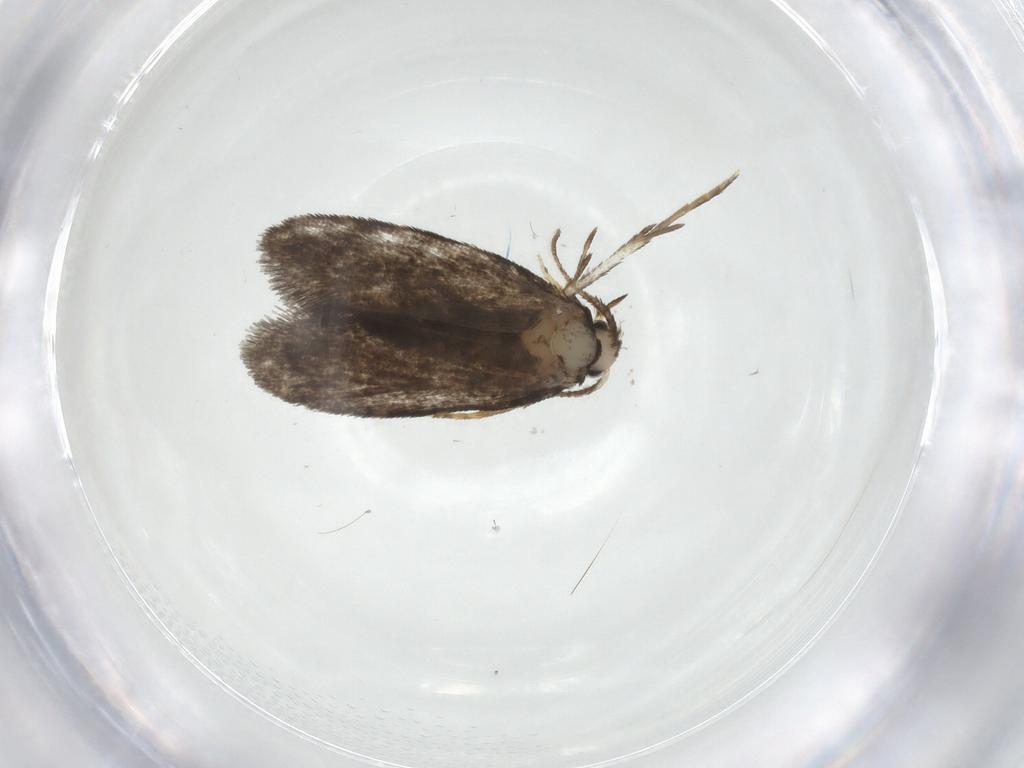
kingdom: Animalia
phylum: Arthropoda
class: Insecta
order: Lepidoptera
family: Psychidae
